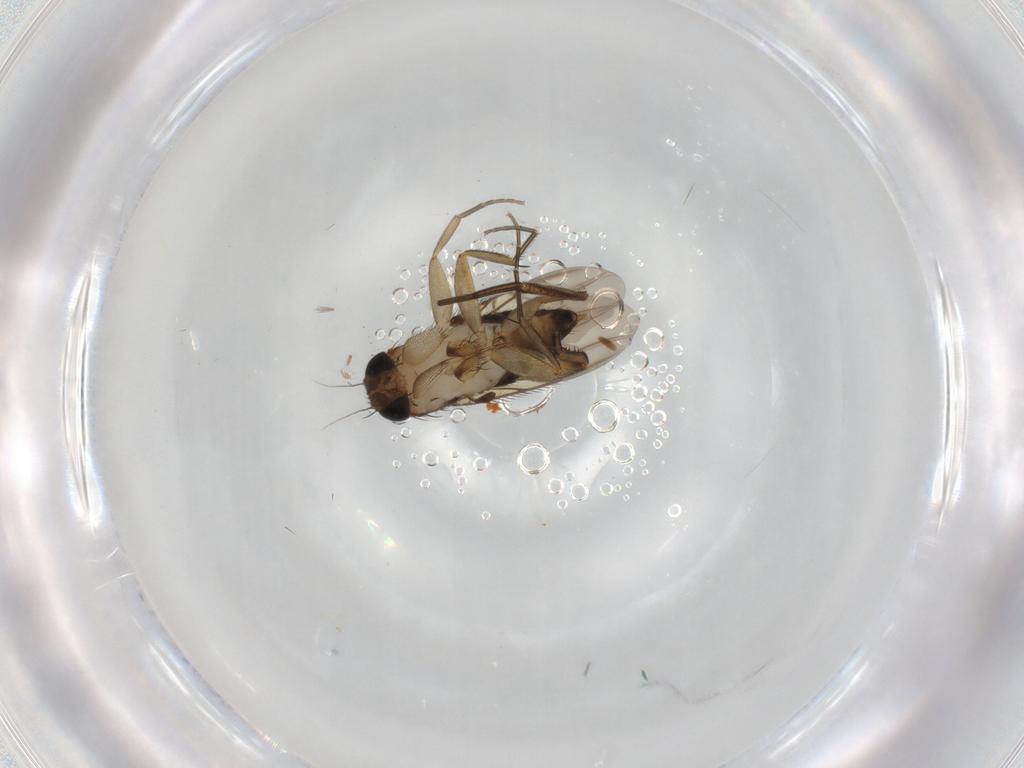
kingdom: Animalia
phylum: Arthropoda
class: Insecta
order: Diptera
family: Phoridae
